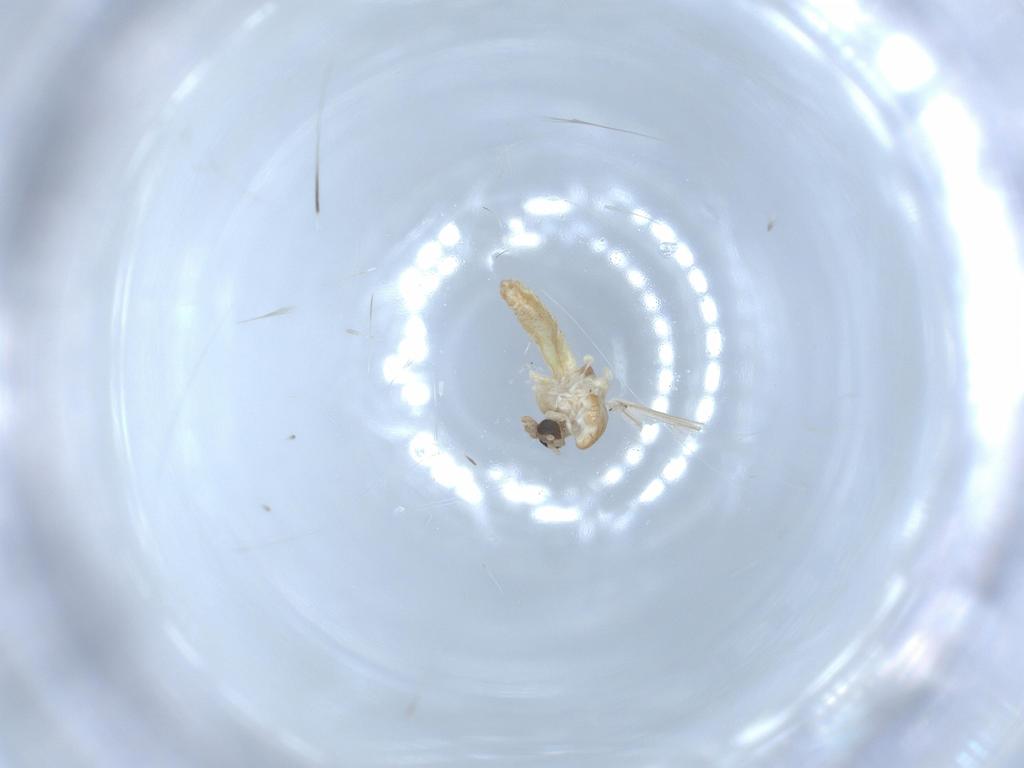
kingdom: Animalia
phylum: Arthropoda
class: Insecta
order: Diptera
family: Chironomidae
